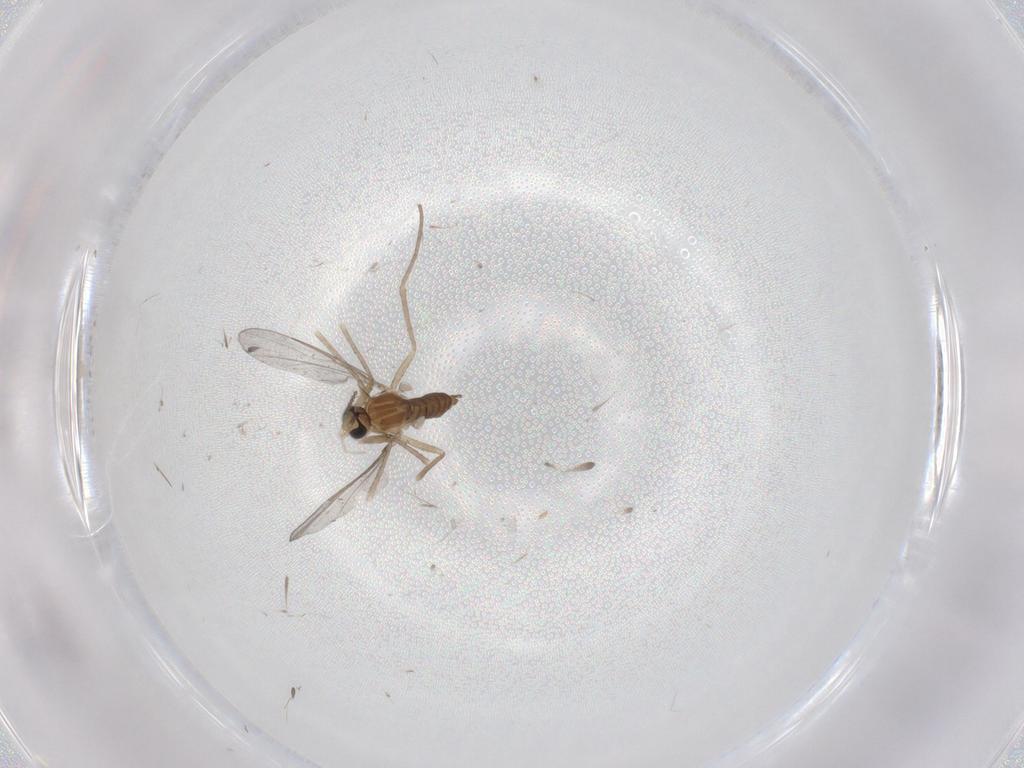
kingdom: Animalia
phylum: Arthropoda
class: Insecta
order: Diptera
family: Cecidomyiidae
